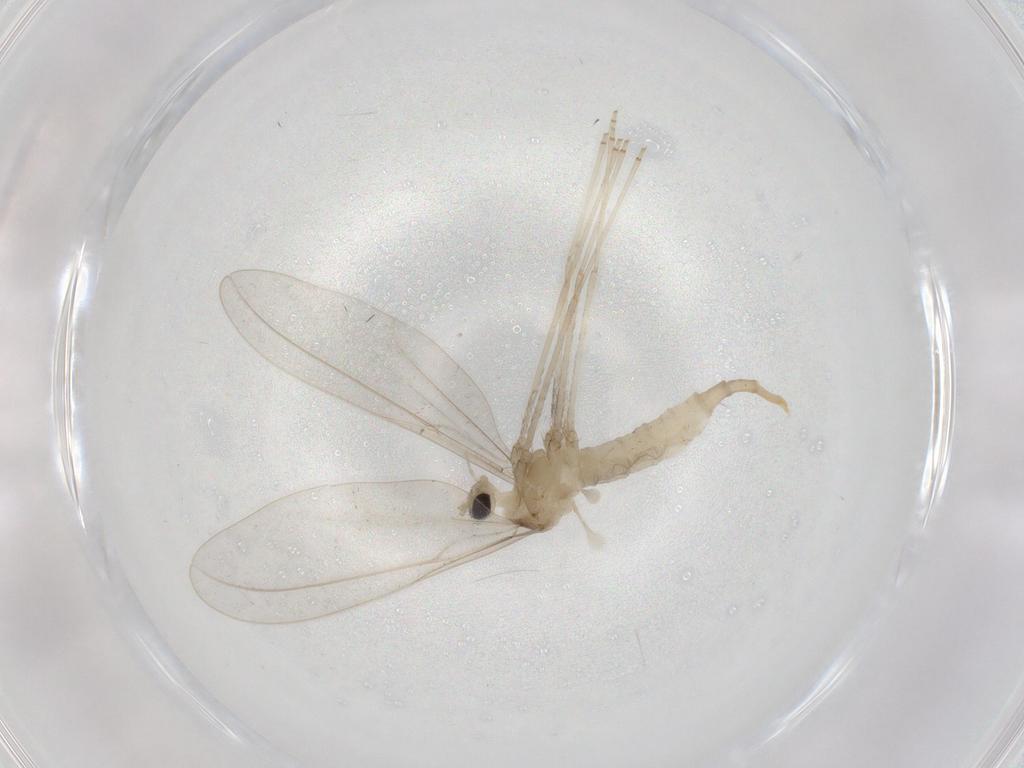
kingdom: Animalia
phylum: Arthropoda
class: Insecta
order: Diptera
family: Cecidomyiidae
